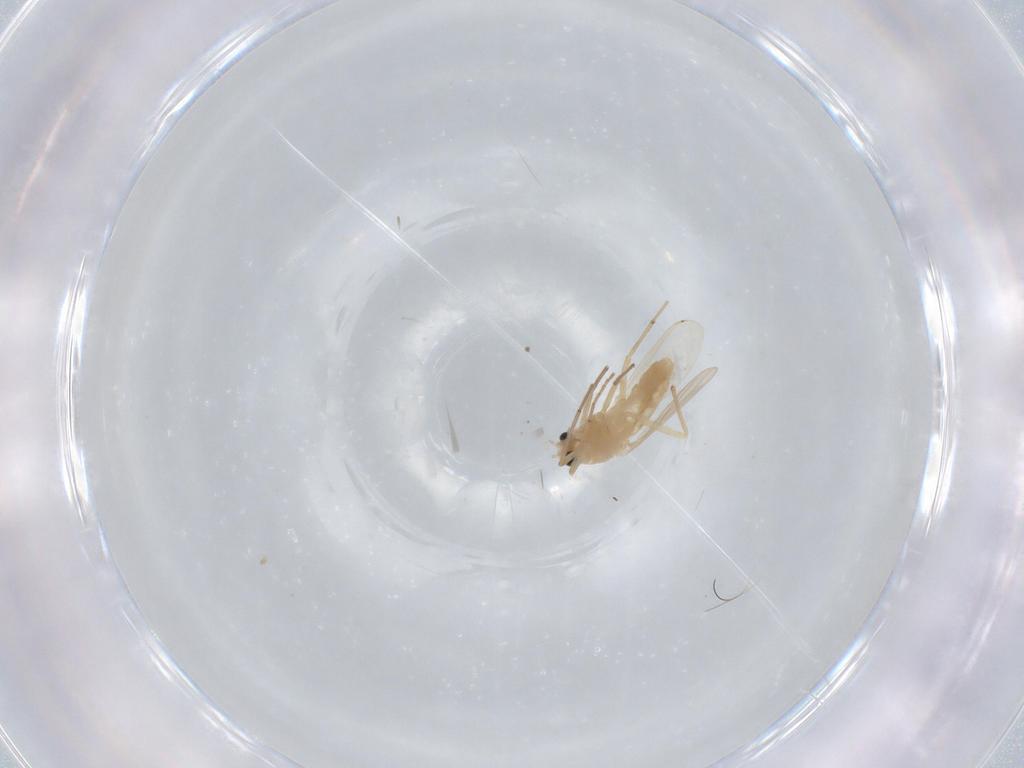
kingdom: Animalia
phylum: Arthropoda
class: Insecta
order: Diptera
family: Chironomidae
